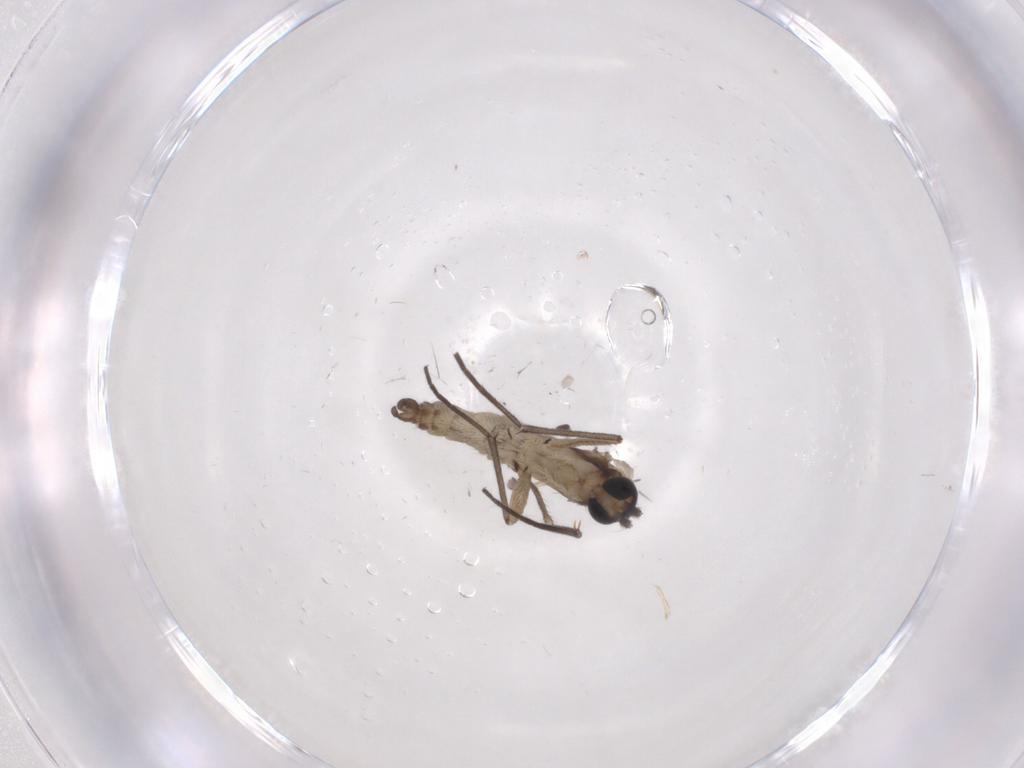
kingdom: Animalia
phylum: Arthropoda
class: Insecta
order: Diptera
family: Sciaridae
